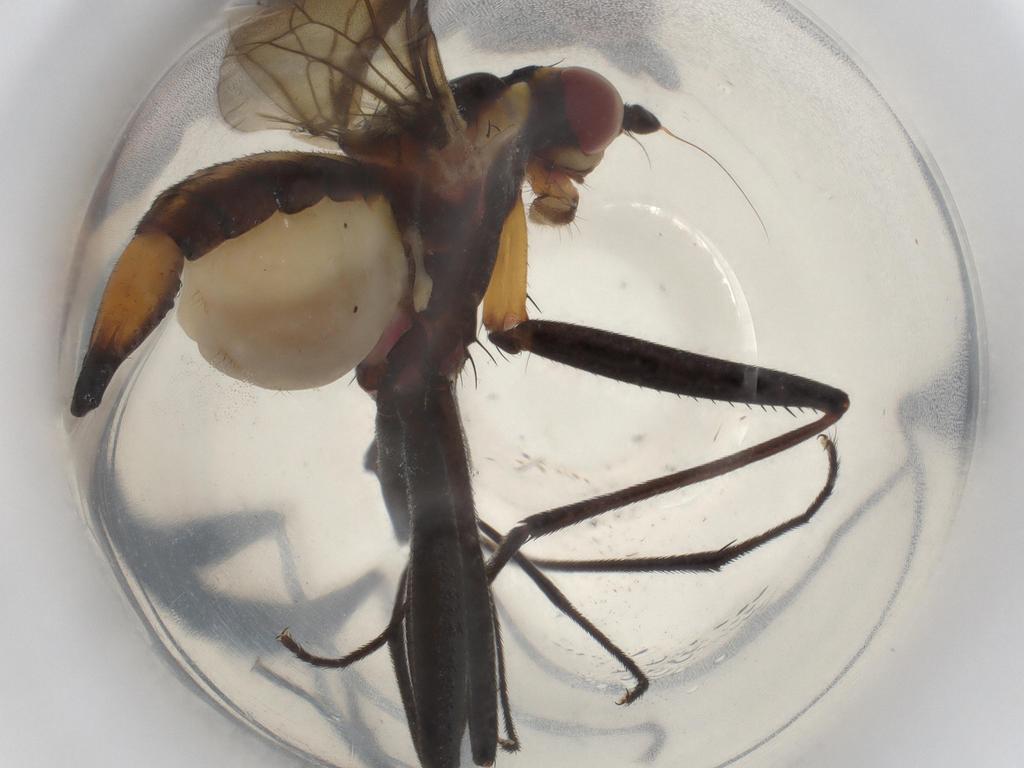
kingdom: Animalia
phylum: Arthropoda
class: Insecta
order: Diptera
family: Neriidae
